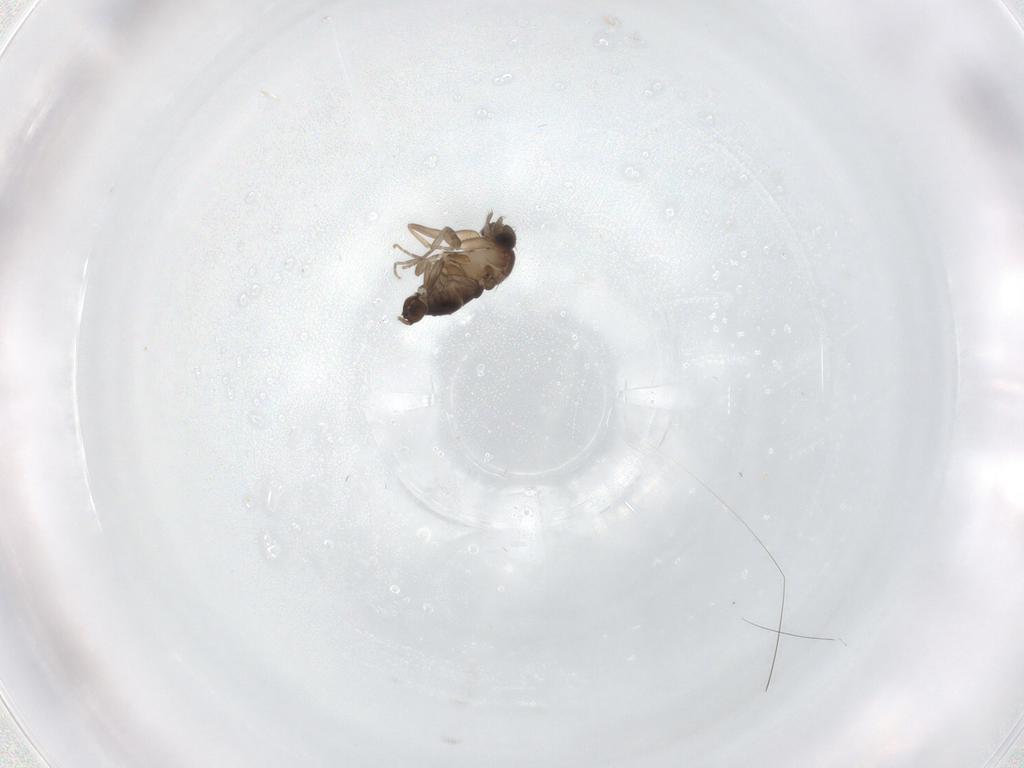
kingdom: Animalia
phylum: Arthropoda
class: Insecta
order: Diptera
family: Phoridae
